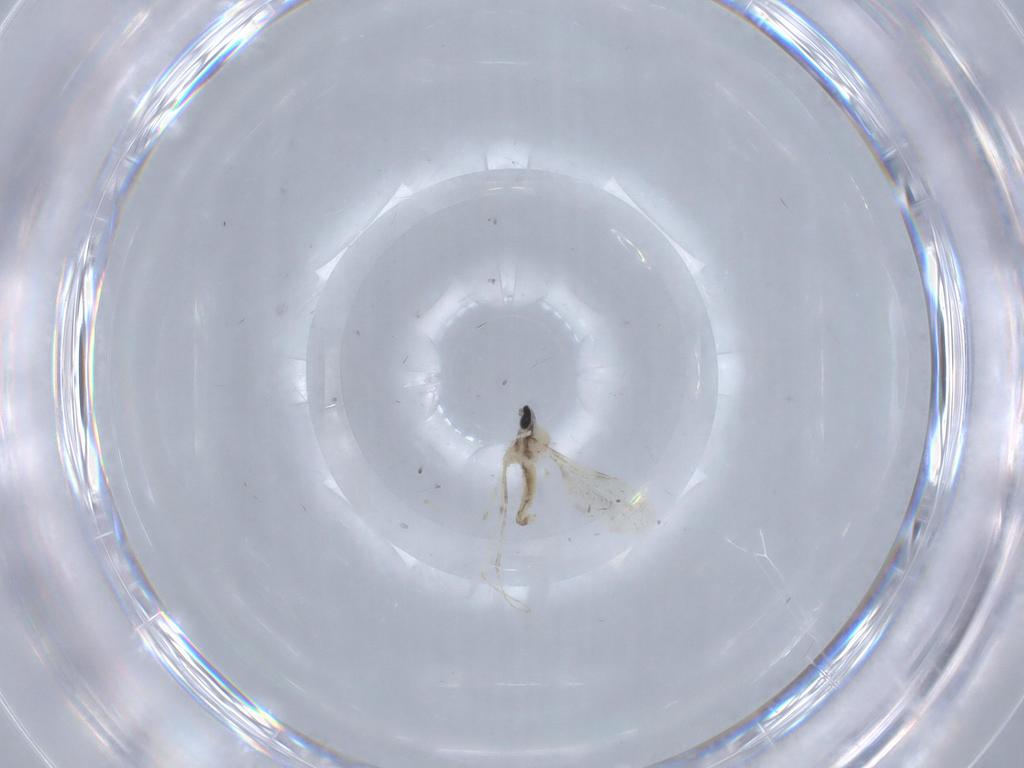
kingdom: Animalia
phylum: Arthropoda
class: Insecta
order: Diptera
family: Cecidomyiidae
